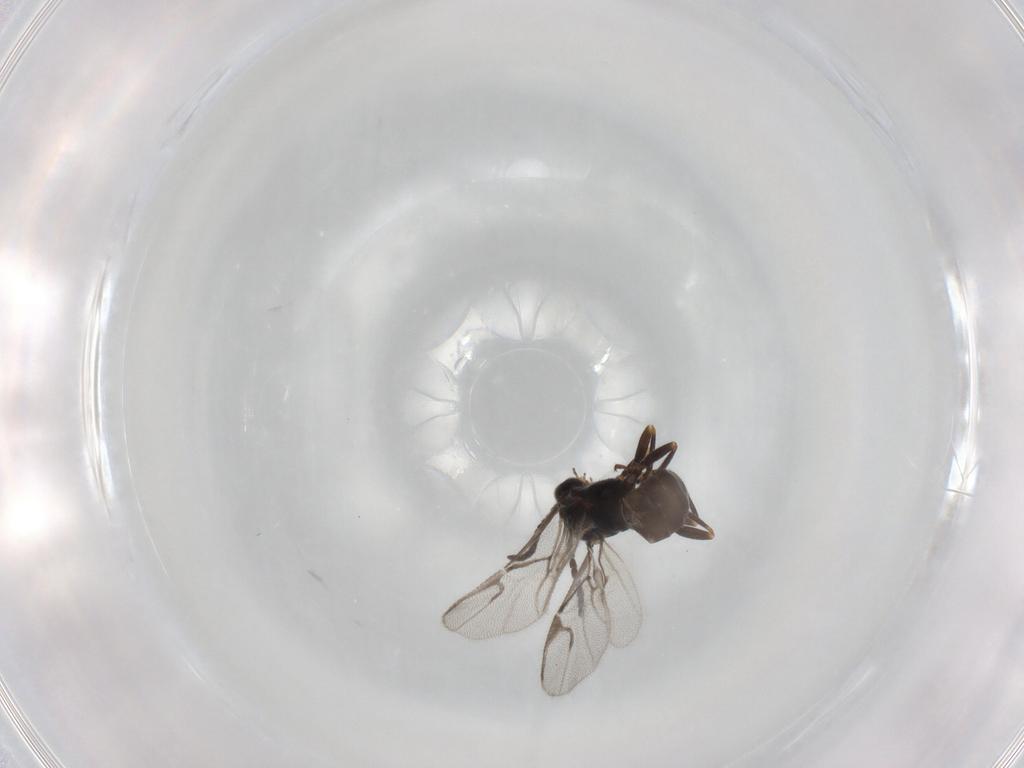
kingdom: Animalia
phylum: Arthropoda
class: Insecta
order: Hymenoptera
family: Braconidae
